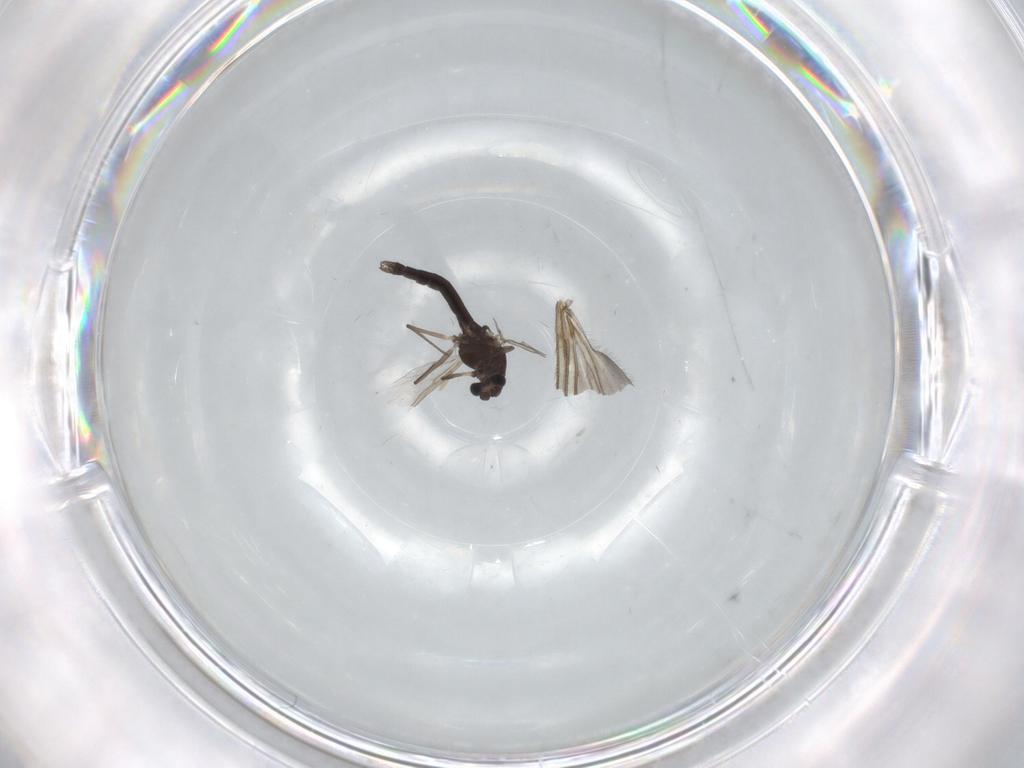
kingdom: Animalia
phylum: Arthropoda
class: Insecta
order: Diptera
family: Chironomidae
